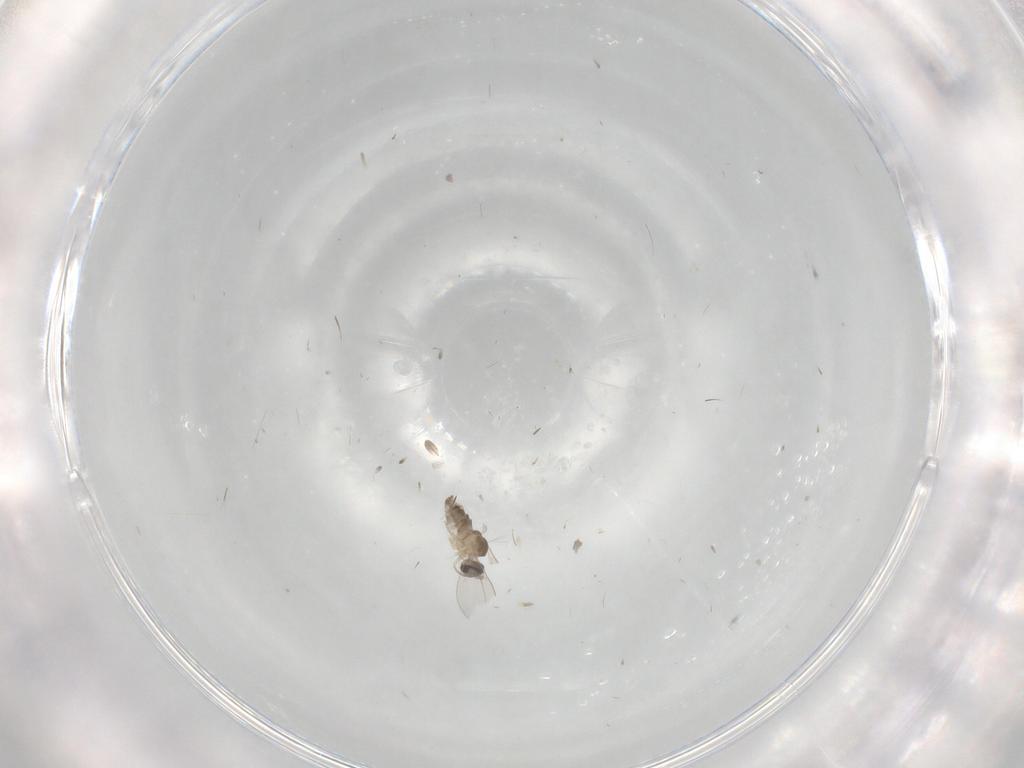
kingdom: Animalia
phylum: Arthropoda
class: Insecta
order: Diptera
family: Cecidomyiidae
